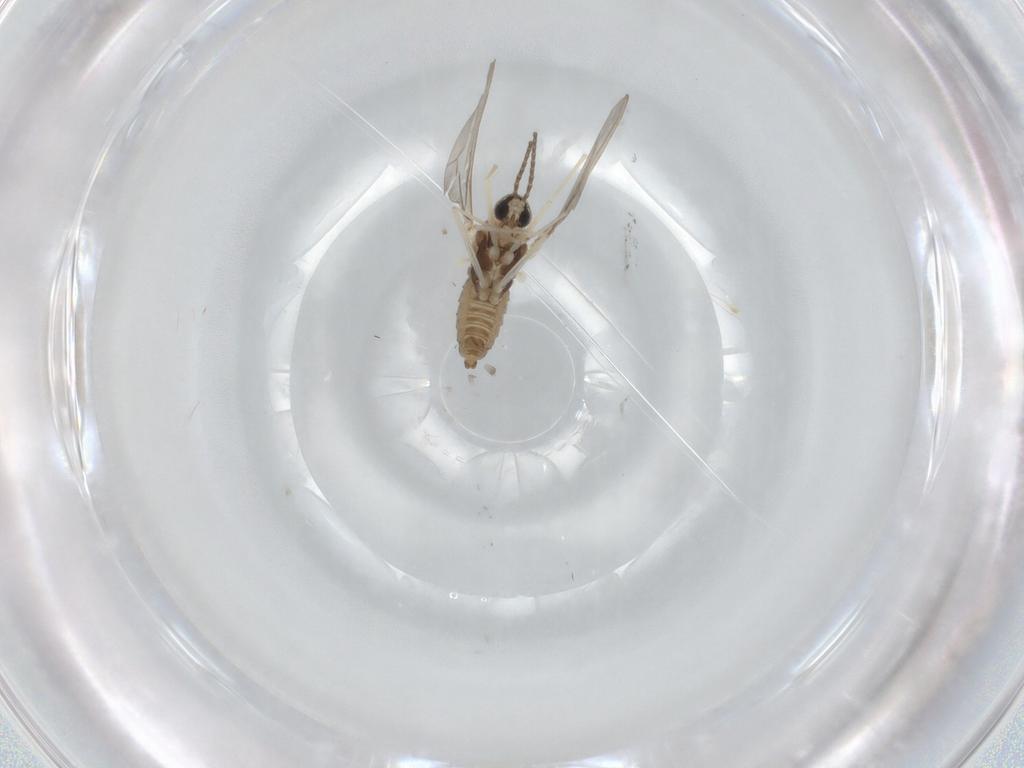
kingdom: Animalia
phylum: Arthropoda
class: Insecta
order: Diptera
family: Cecidomyiidae
